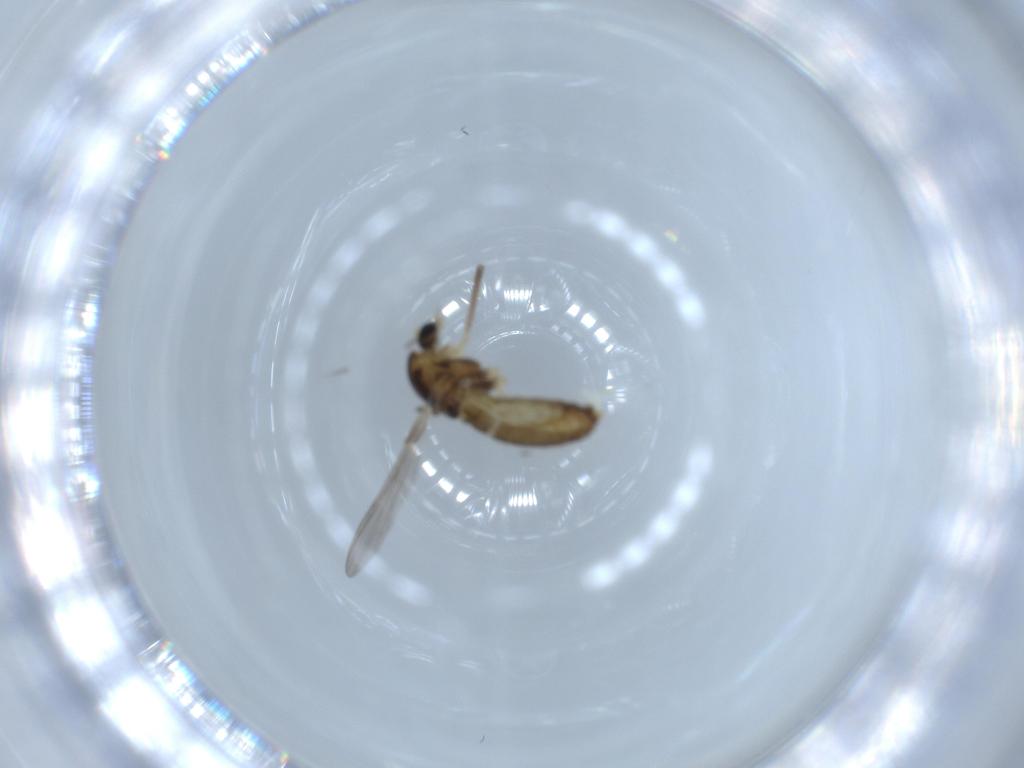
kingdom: Animalia
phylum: Arthropoda
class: Insecta
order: Diptera
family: Chironomidae
